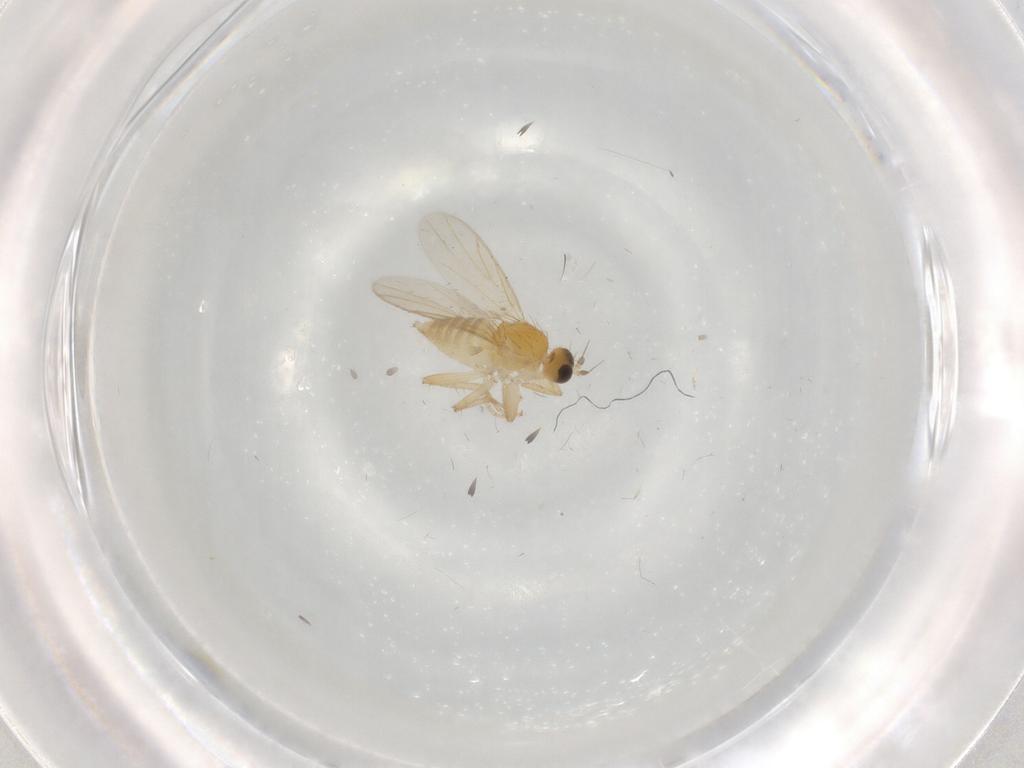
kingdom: Animalia
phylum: Arthropoda
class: Insecta
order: Diptera
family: Hybotidae
